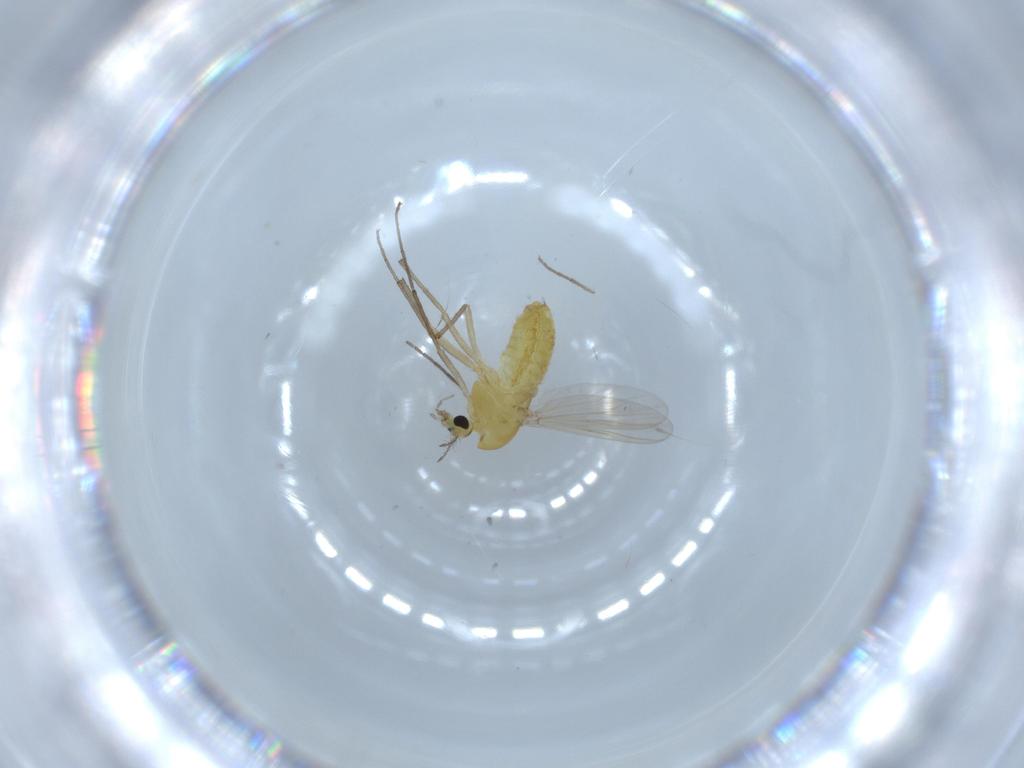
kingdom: Animalia
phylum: Arthropoda
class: Insecta
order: Diptera
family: Chironomidae
